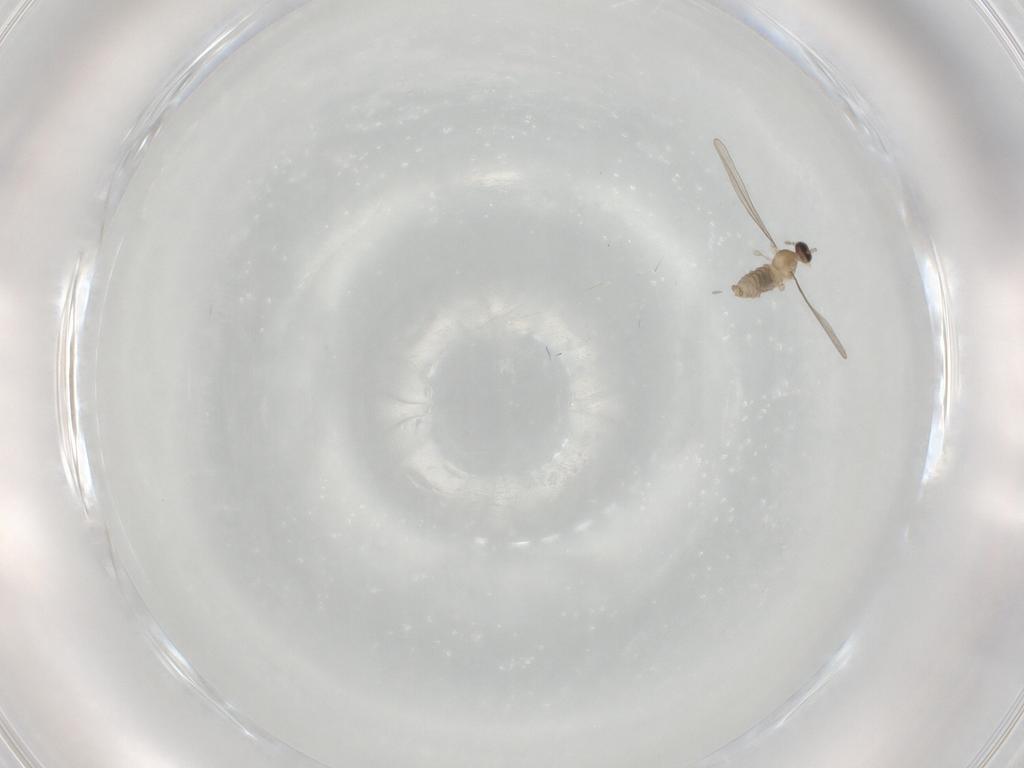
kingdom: Animalia
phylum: Arthropoda
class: Insecta
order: Diptera
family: Cecidomyiidae
